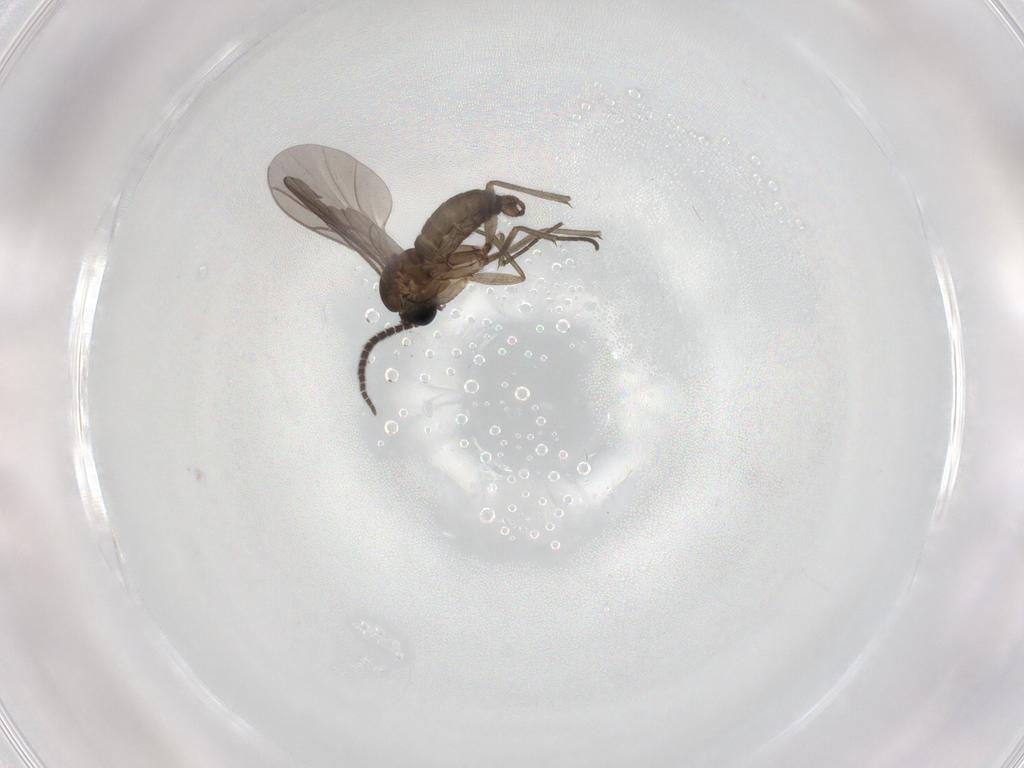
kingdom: Animalia
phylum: Arthropoda
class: Insecta
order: Diptera
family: Sciaridae
